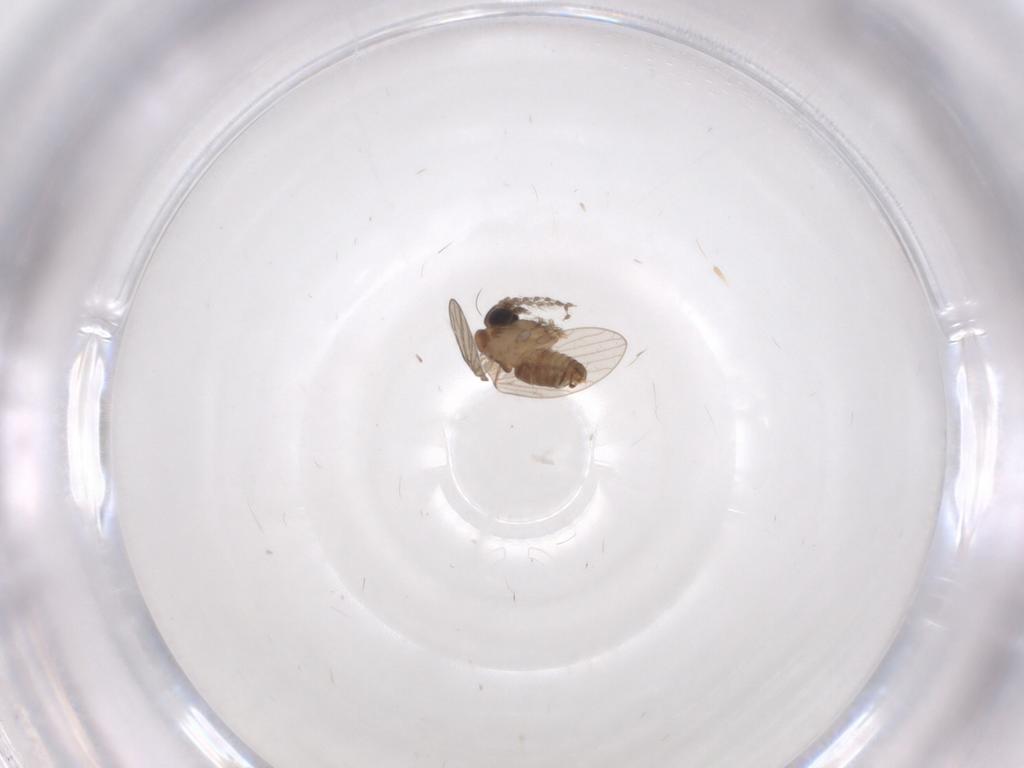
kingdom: Animalia
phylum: Arthropoda
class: Insecta
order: Diptera
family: Psychodidae
